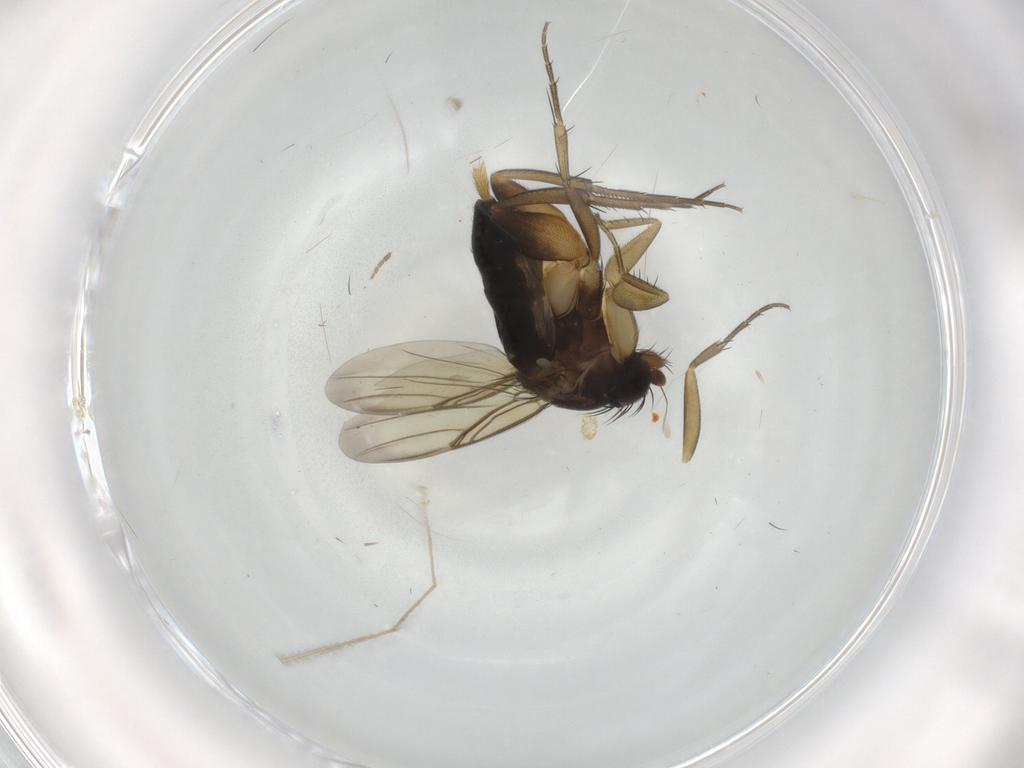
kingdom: Animalia
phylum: Arthropoda
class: Insecta
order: Diptera
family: Phoridae
